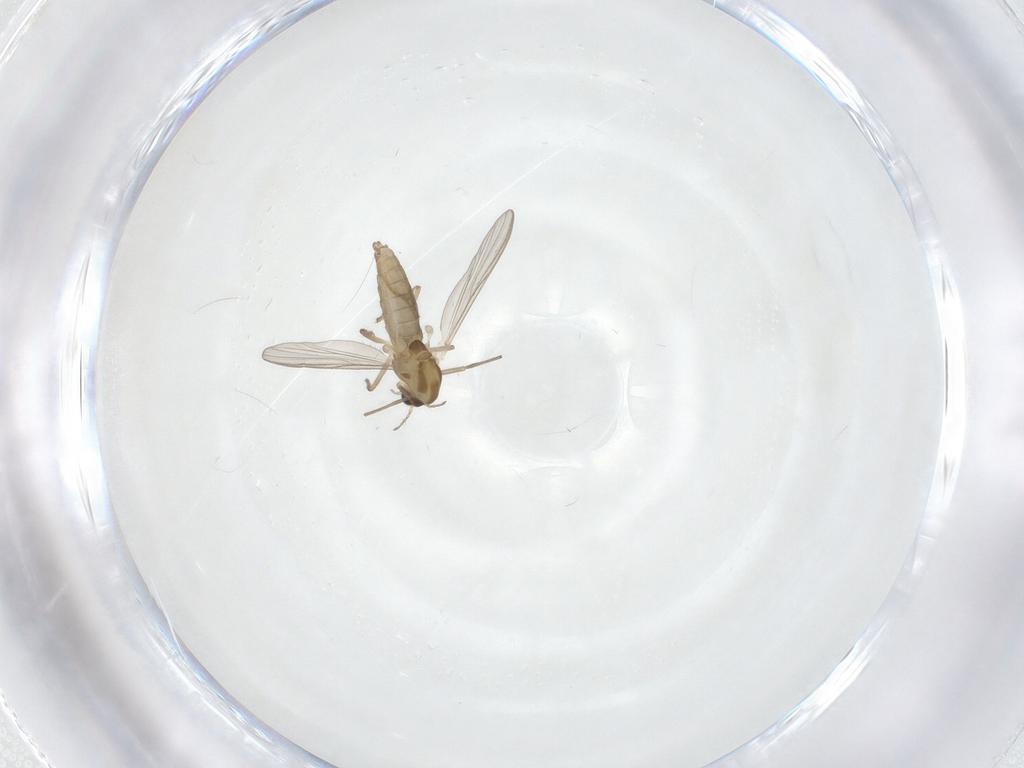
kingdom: Animalia
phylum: Arthropoda
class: Insecta
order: Diptera
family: Chironomidae
